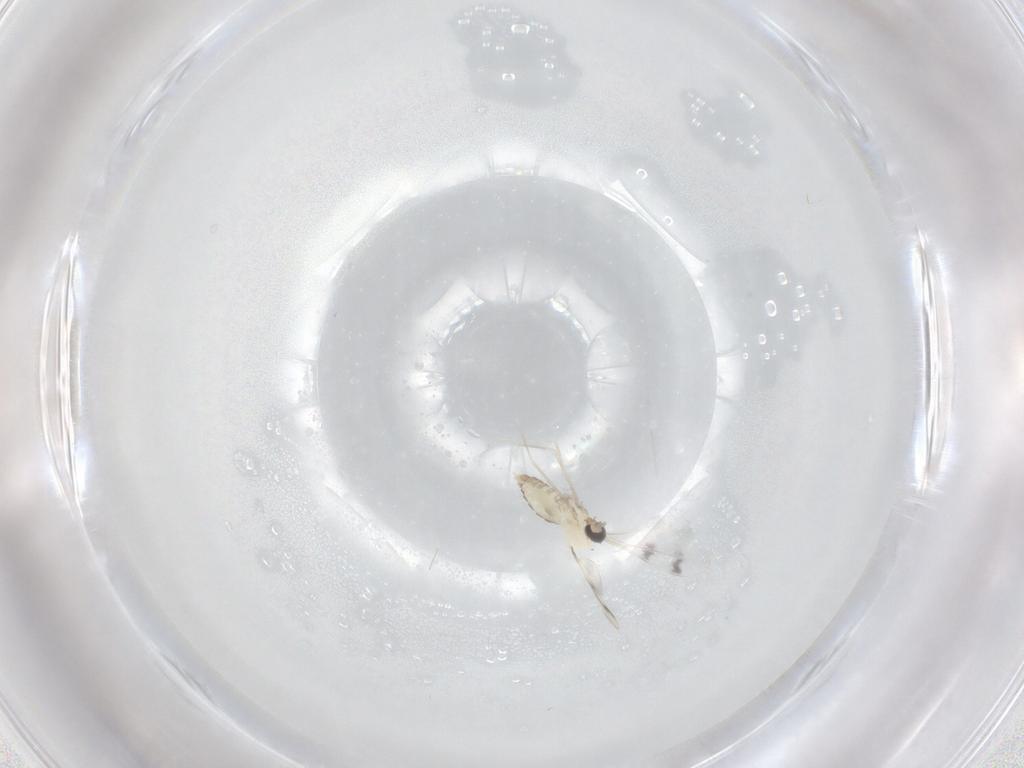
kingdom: Animalia
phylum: Arthropoda
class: Insecta
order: Diptera
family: Cecidomyiidae
